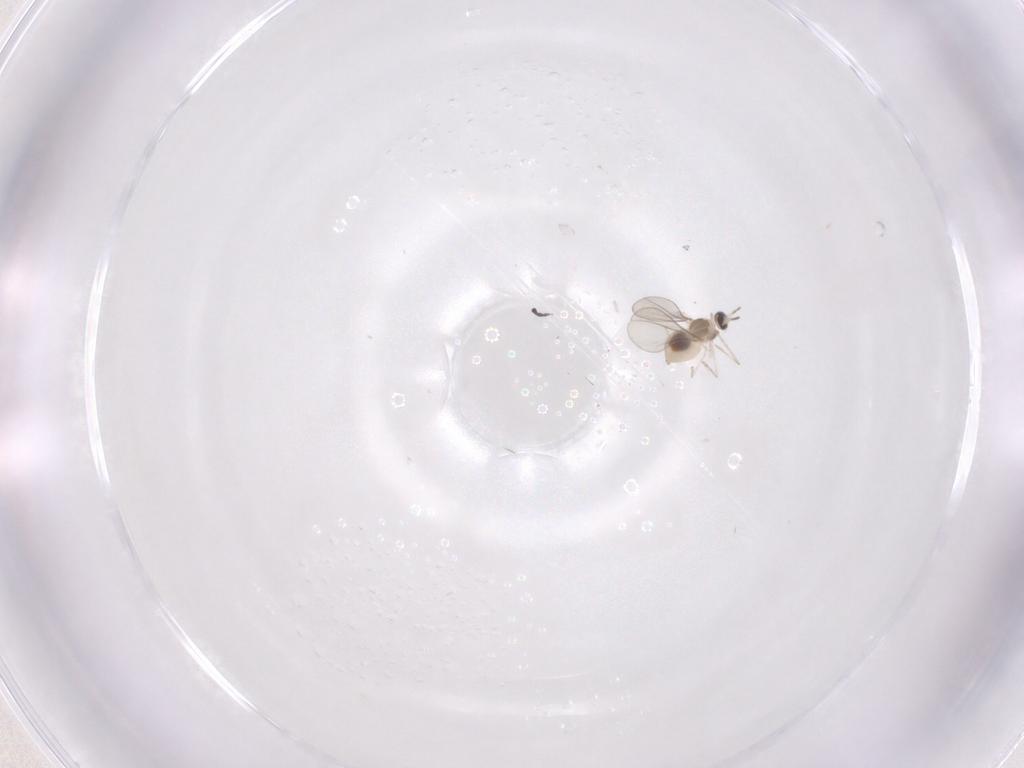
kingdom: Animalia
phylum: Arthropoda
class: Insecta
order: Diptera
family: Cecidomyiidae
